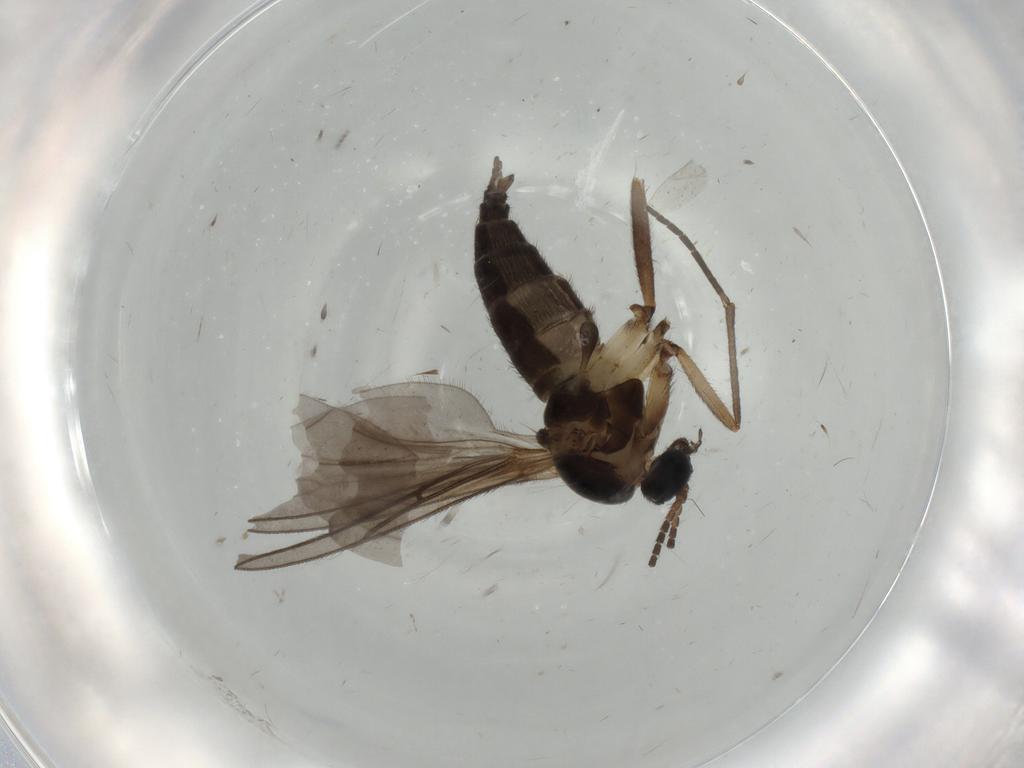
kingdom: Animalia
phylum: Arthropoda
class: Insecta
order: Diptera
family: Sciaridae
